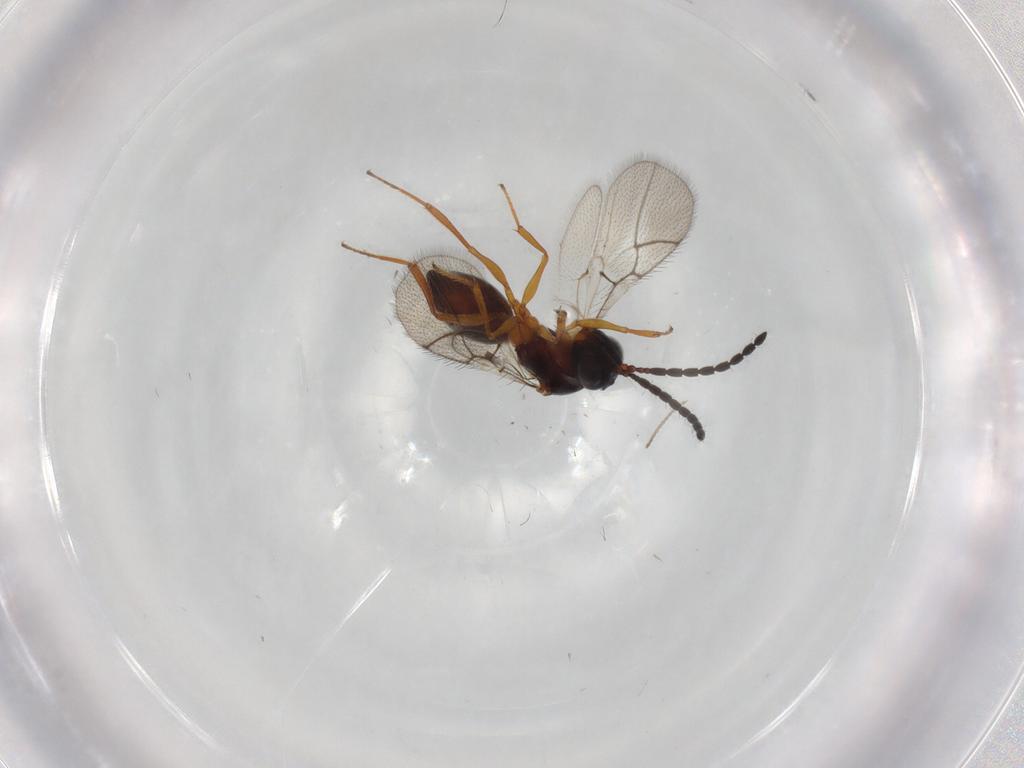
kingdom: Animalia
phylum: Arthropoda
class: Insecta
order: Hymenoptera
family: Figitidae
